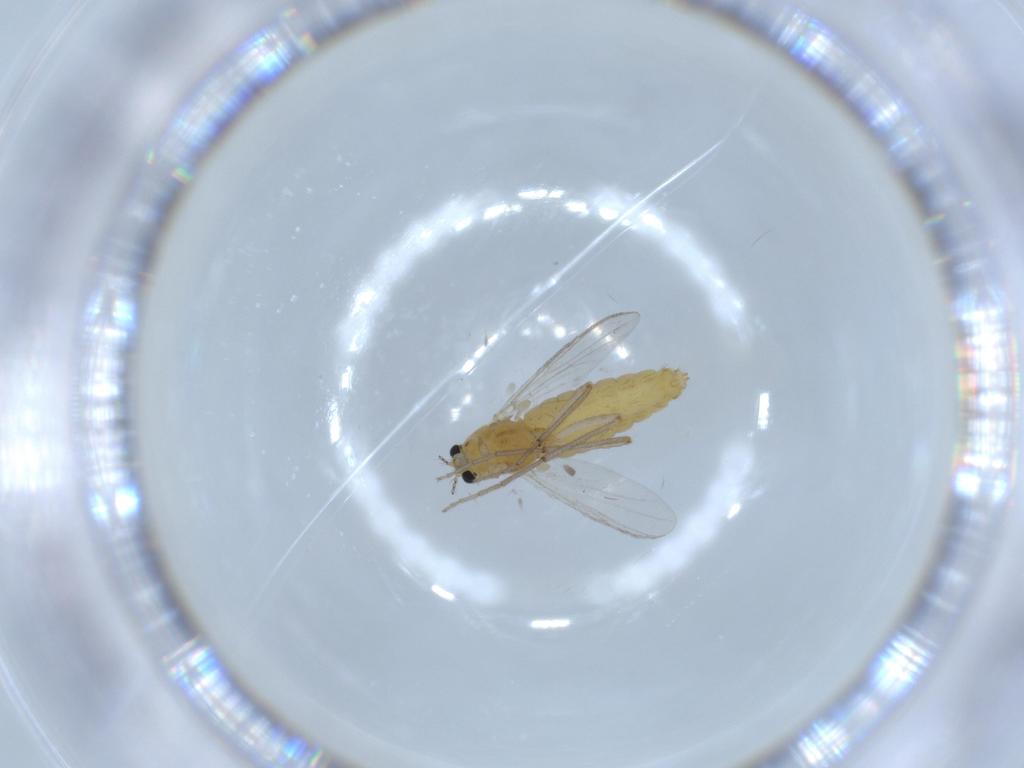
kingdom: Animalia
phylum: Arthropoda
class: Insecta
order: Diptera
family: Chironomidae
